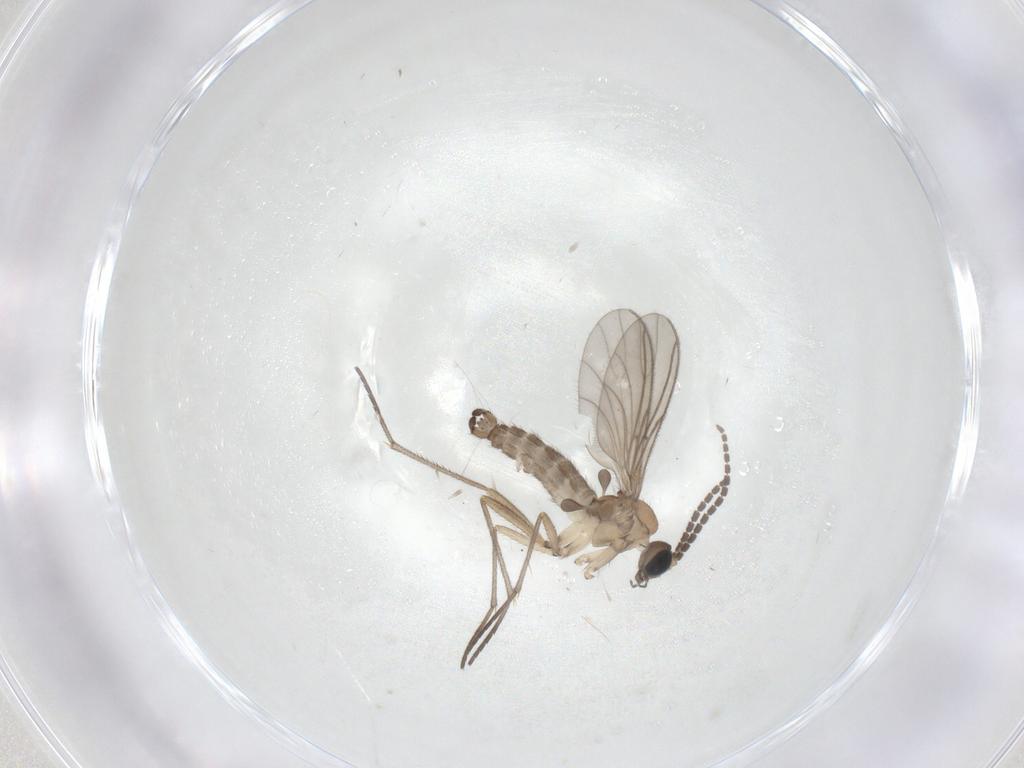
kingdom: Animalia
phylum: Arthropoda
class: Insecta
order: Diptera
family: Sciaridae
